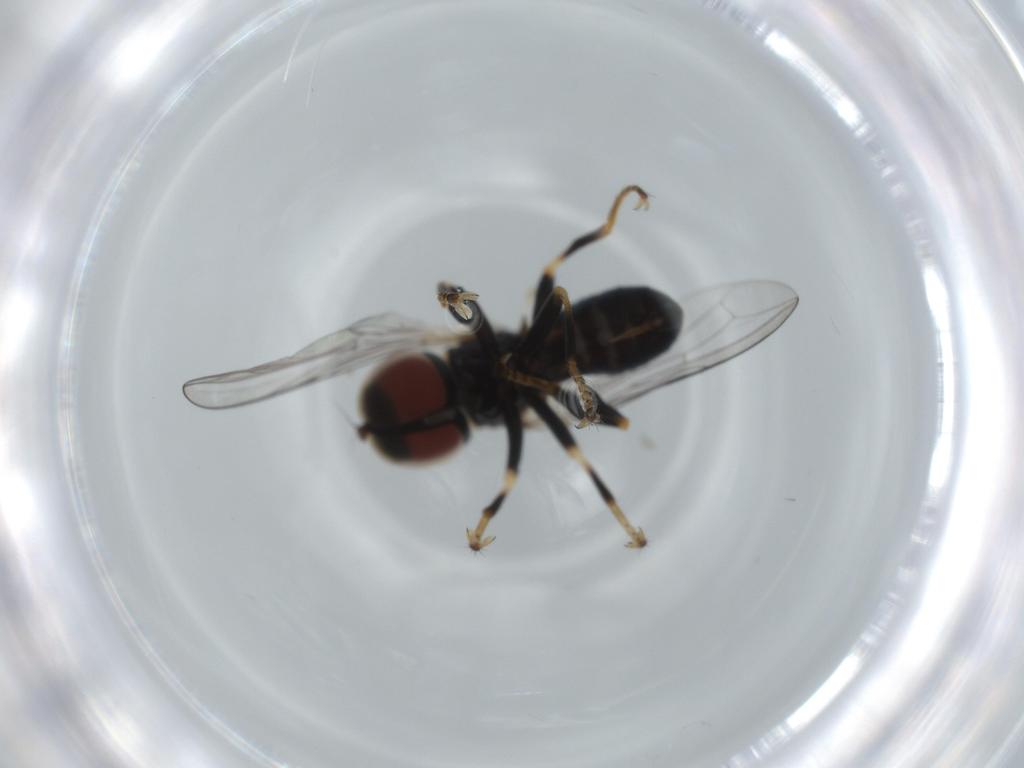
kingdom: Animalia
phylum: Arthropoda
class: Insecta
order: Diptera
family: Pipunculidae
